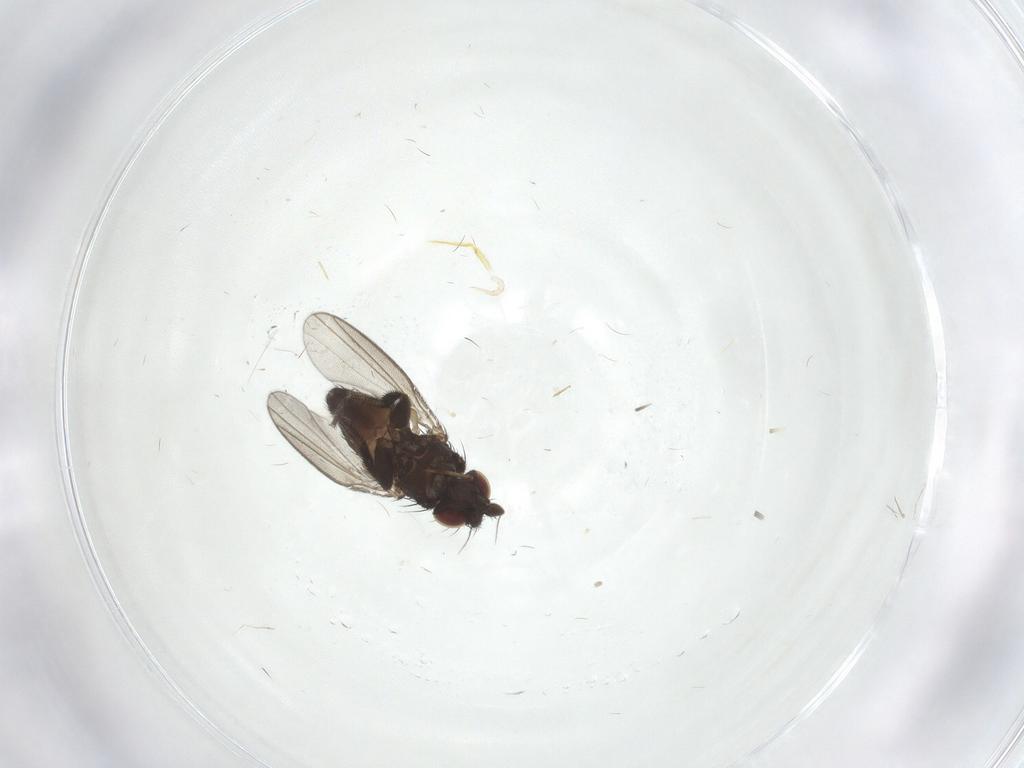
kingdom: Animalia
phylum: Arthropoda
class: Insecta
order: Diptera
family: Milichiidae
